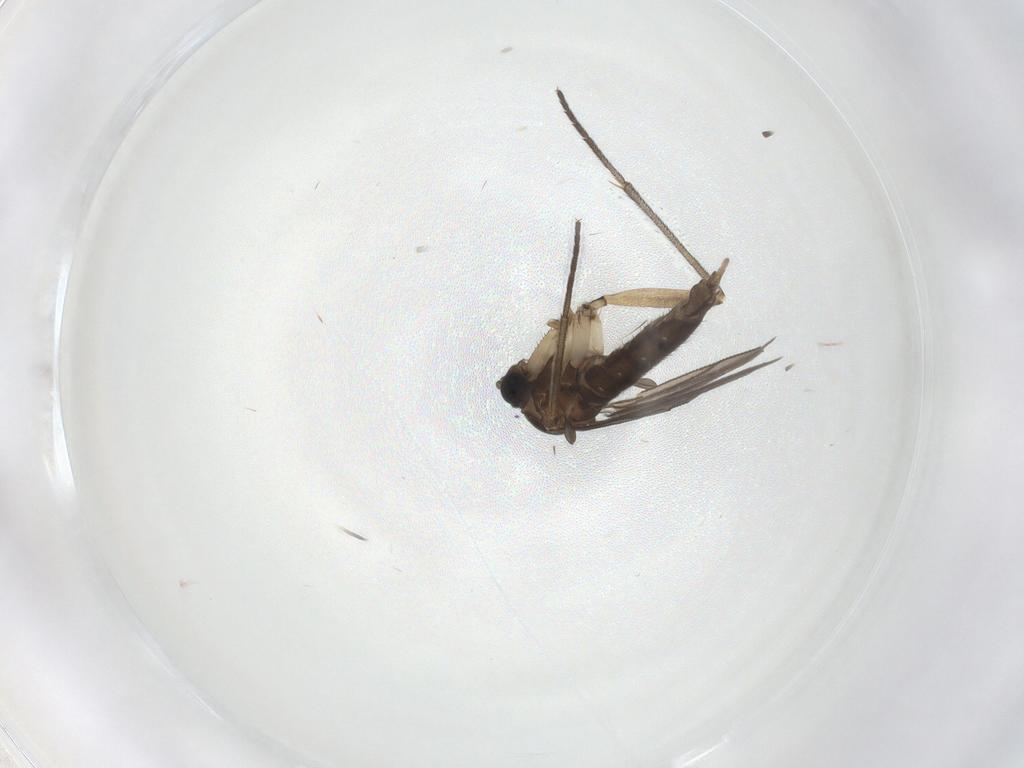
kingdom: Animalia
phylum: Arthropoda
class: Insecta
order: Diptera
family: Sciaridae
